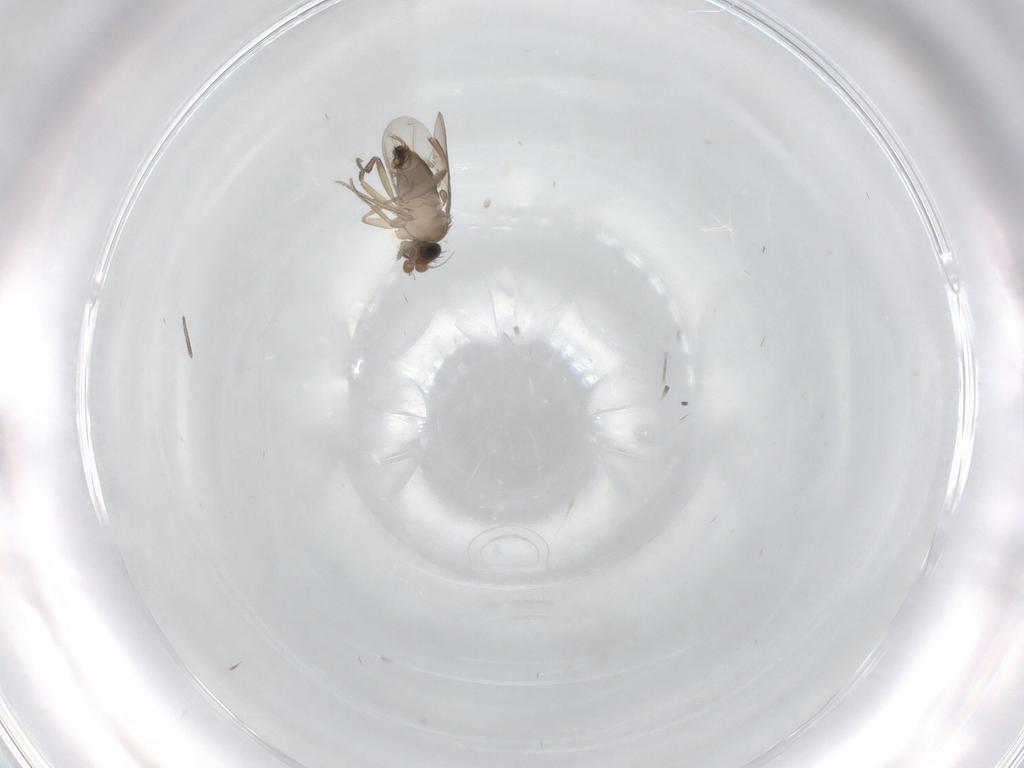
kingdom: Animalia
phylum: Arthropoda
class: Insecta
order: Diptera
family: Phoridae
